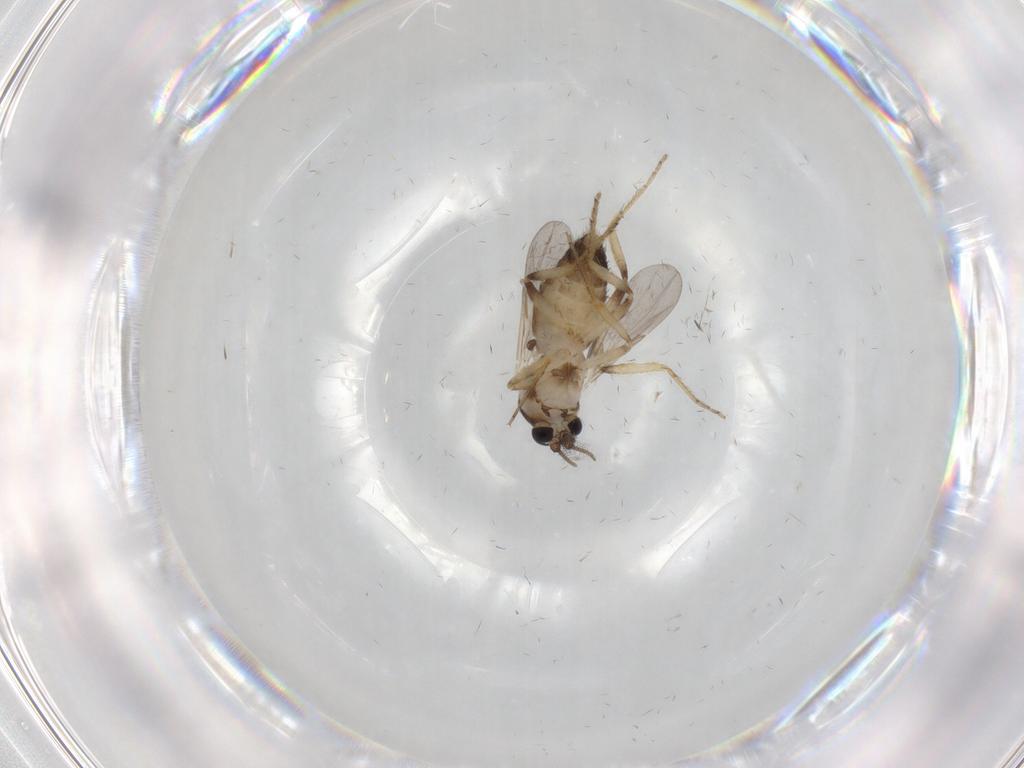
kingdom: Animalia
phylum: Arthropoda
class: Insecta
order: Diptera
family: Ceratopogonidae
